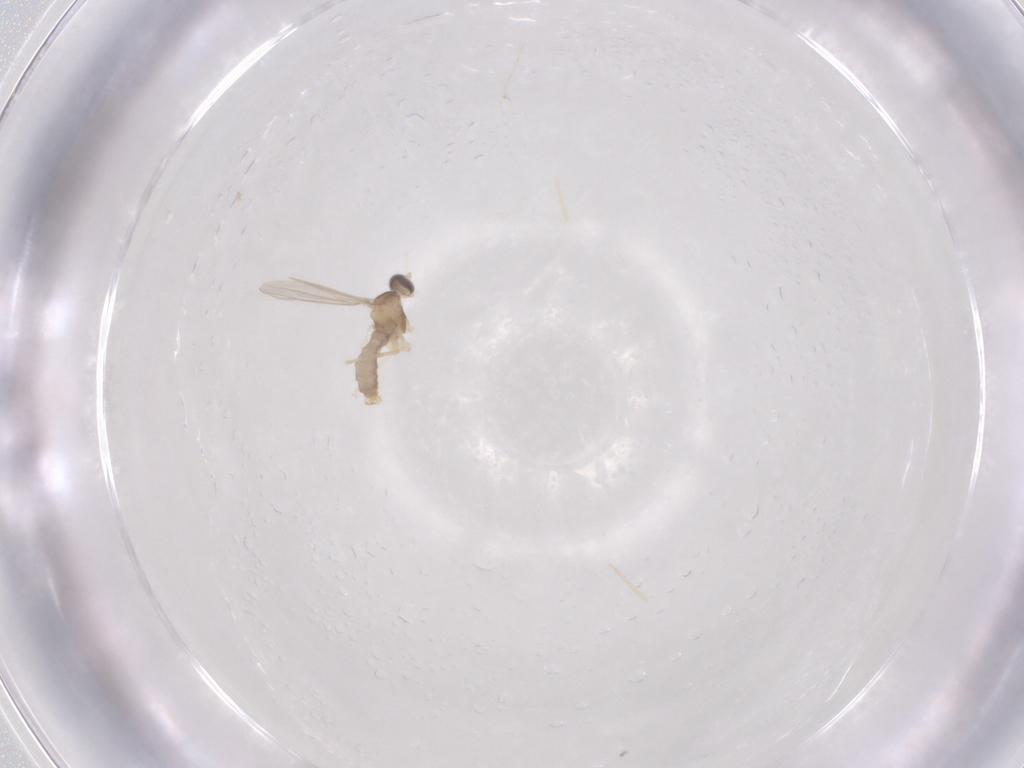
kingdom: Animalia
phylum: Arthropoda
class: Insecta
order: Diptera
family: Cecidomyiidae
